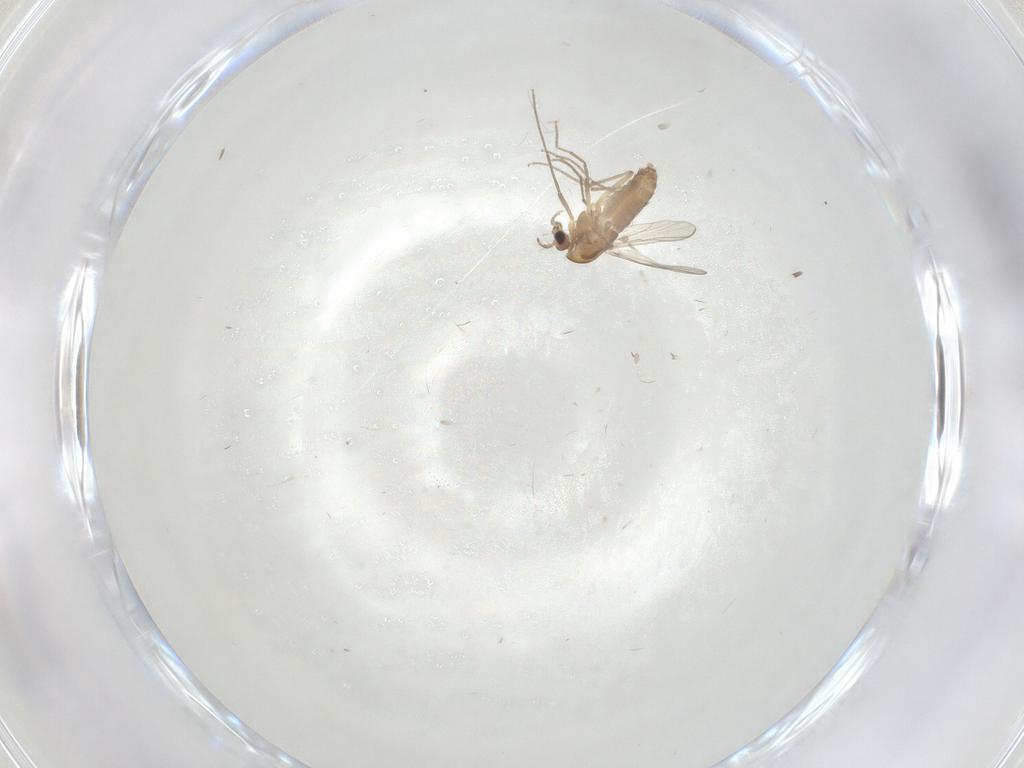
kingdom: Animalia
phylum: Arthropoda
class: Insecta
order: Diptera
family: Chironomidae
